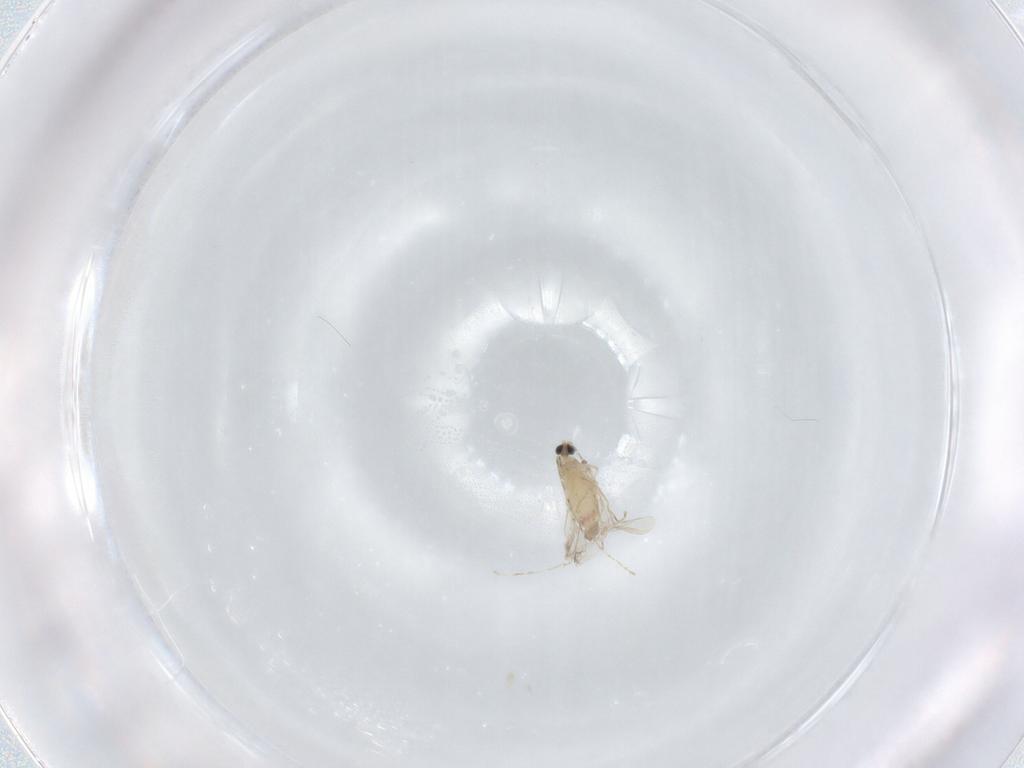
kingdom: Animalia
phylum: Arthropoda
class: Insecta
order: Diptera
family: Cecidomyiidae
